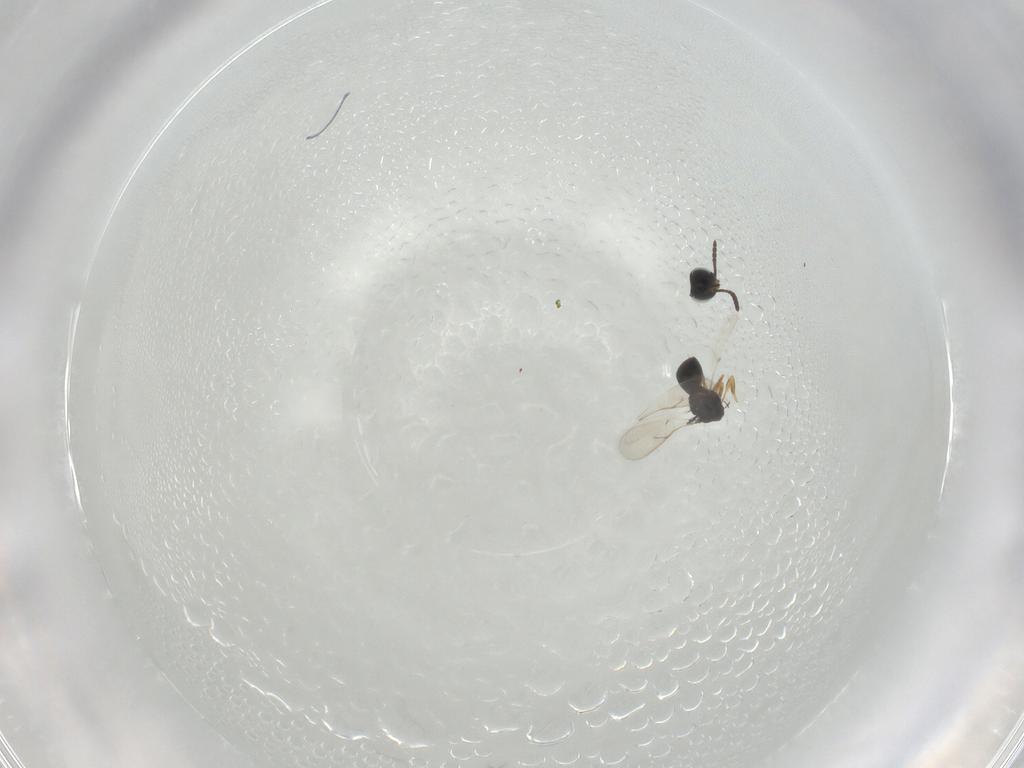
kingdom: Animalia
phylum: Arthropoda
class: Insecta
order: Hymenoptera
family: Scelionidae
